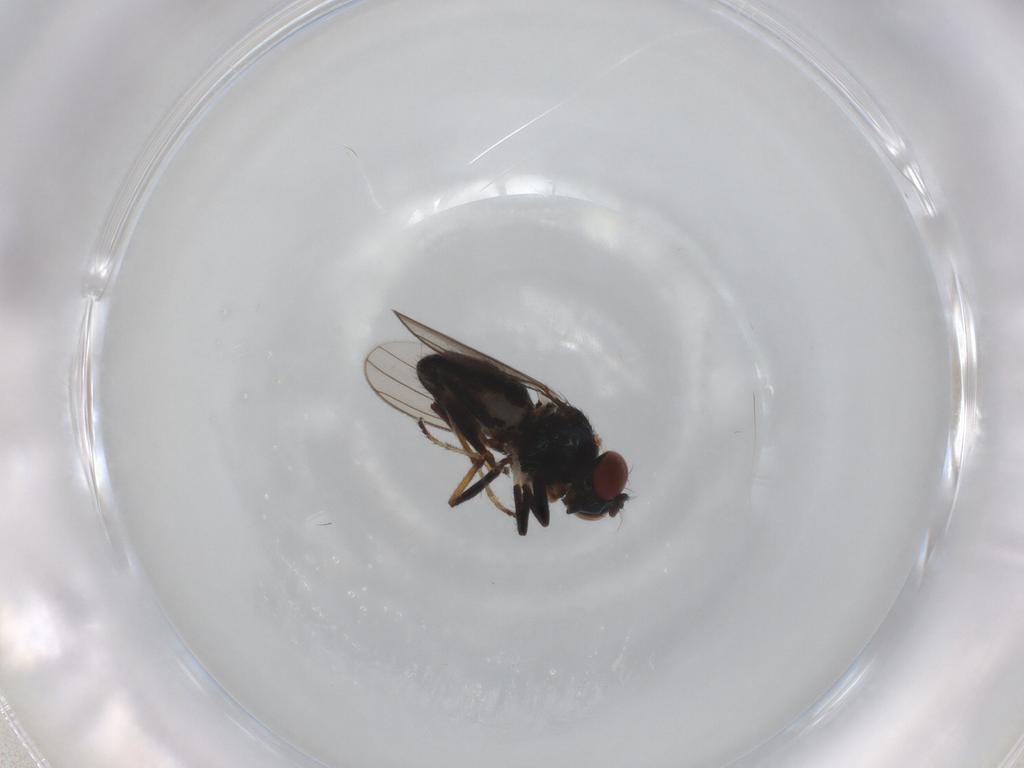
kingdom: Animalia
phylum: Arthropoda
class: Insecta
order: Diptera
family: Ephydridae
